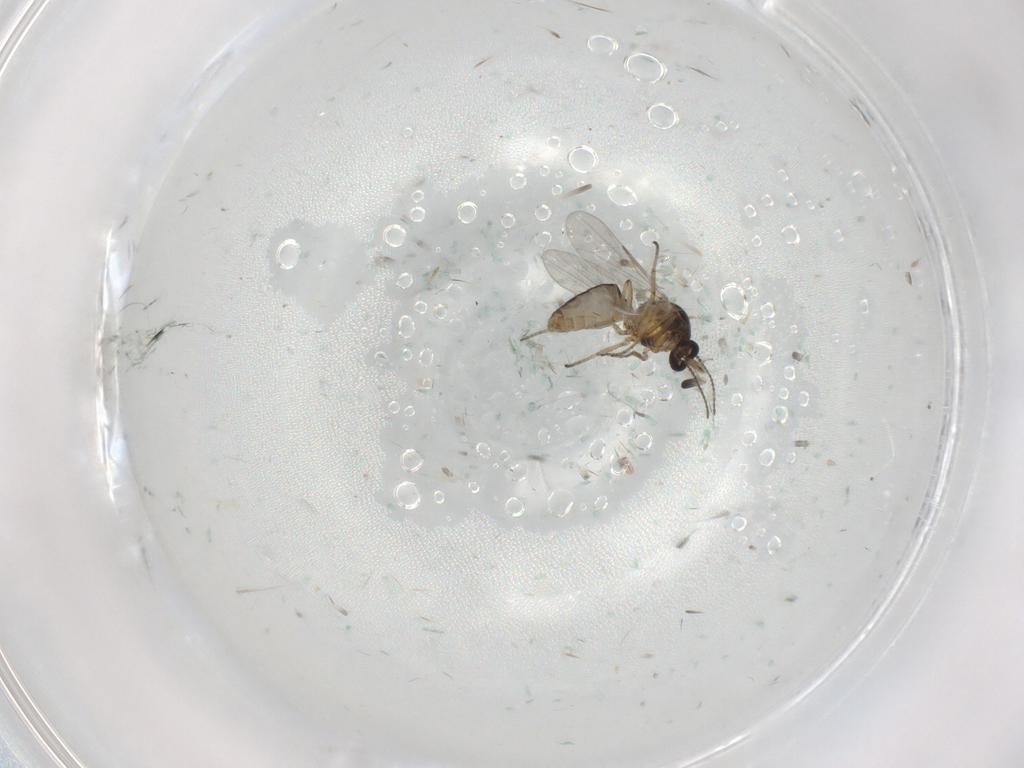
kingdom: Animalia
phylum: Arthropoda
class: Insecta
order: Diptera
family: Ceratopogonidae
